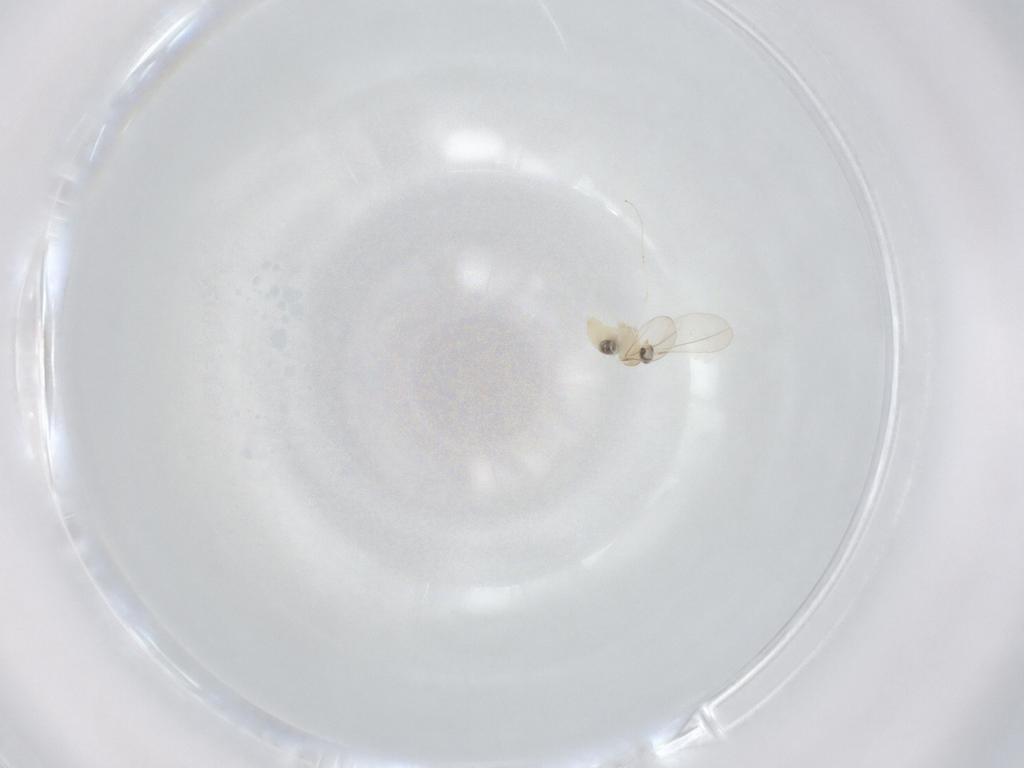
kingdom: Animalia
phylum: Arthropoda
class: Insecta
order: Diptera
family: Cecidomyiidae
